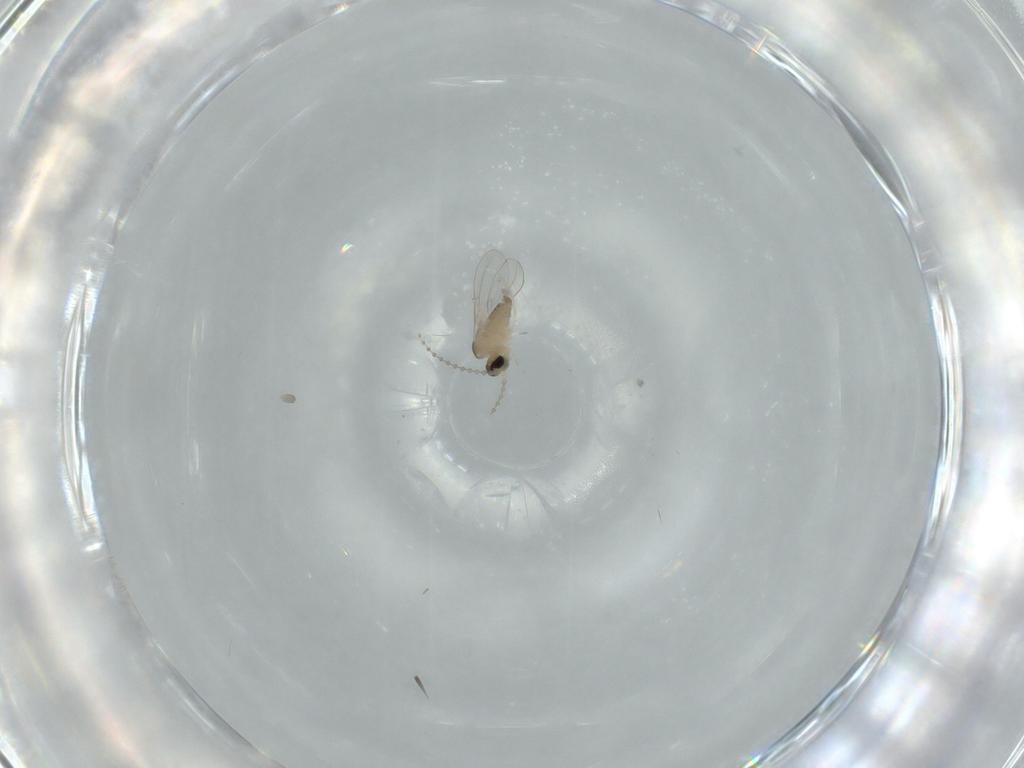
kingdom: Animalia
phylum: Arthropoda
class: Insecta
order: Diptera
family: Cecidomyiidae
